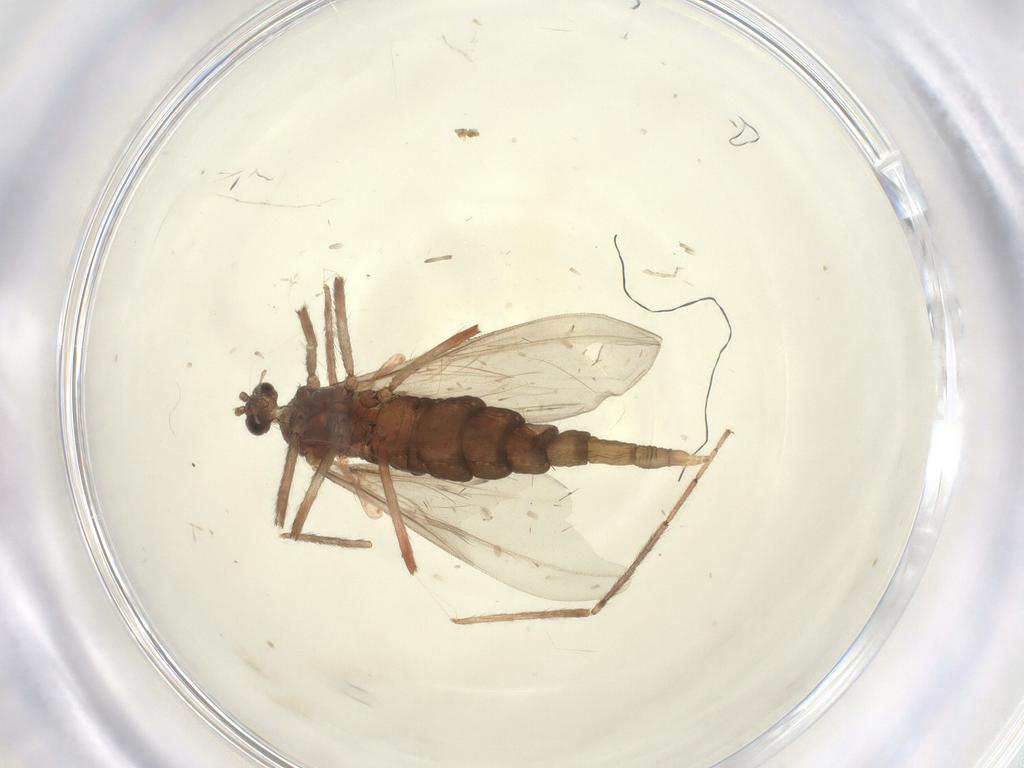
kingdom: Animalia
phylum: Arthropoda
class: Insecta
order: Diptera
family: Cecidomyiidae
